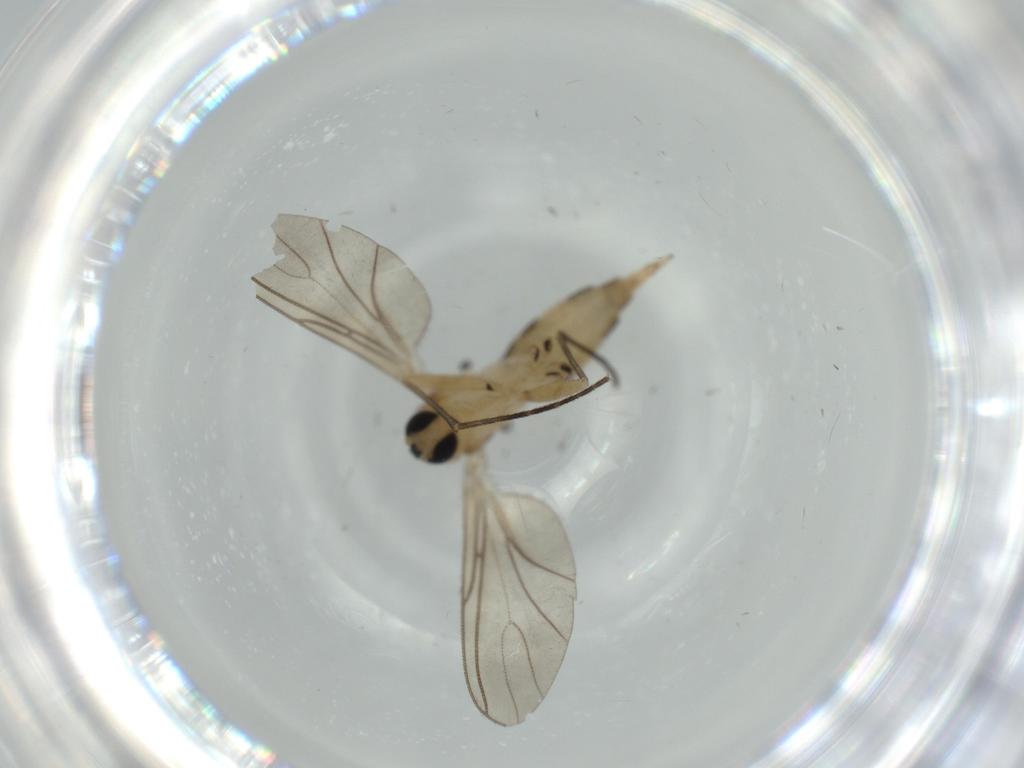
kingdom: Animalia
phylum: Arthropoda
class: Insecta
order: Diptera
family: Sciaridae
